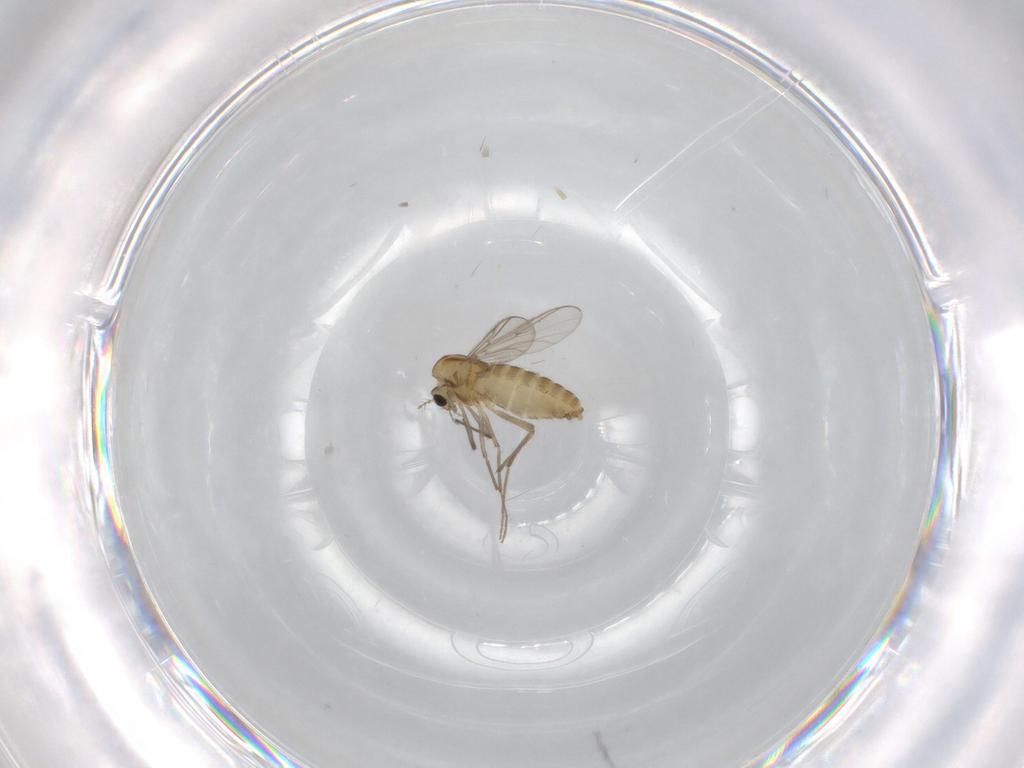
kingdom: Animalia
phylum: Arthropoda
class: Insecta
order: Diptera
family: Chironomidae
